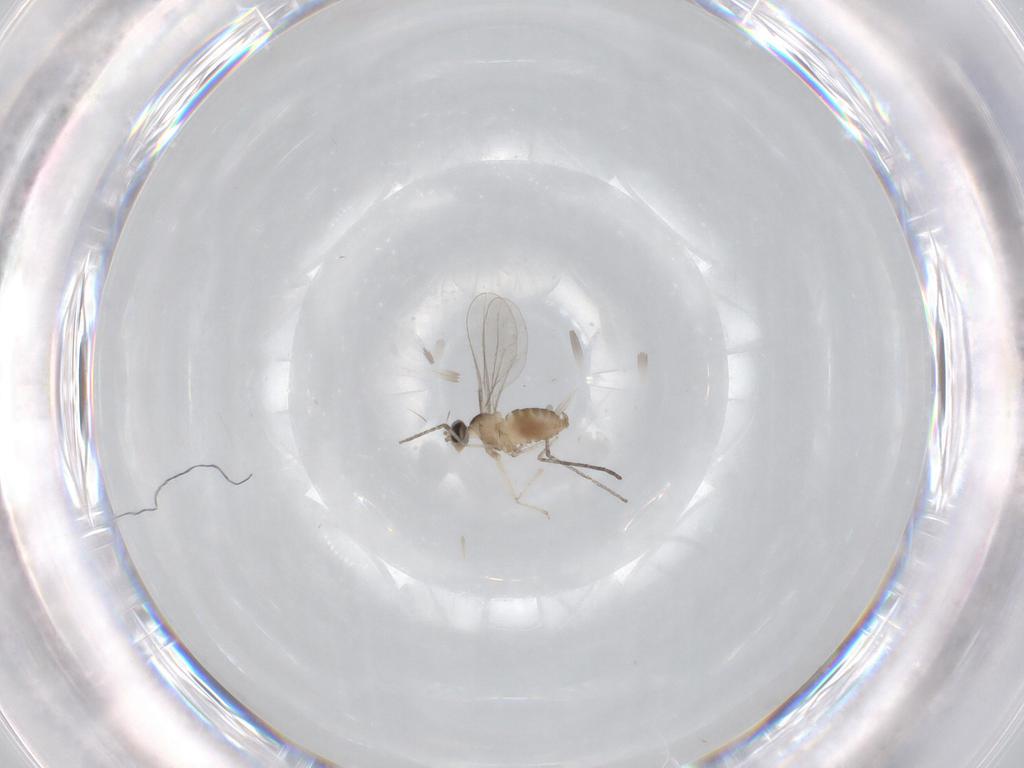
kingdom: Animalia
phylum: Arthropoda
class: Insecta
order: Diptera
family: Cecidomyiidae
